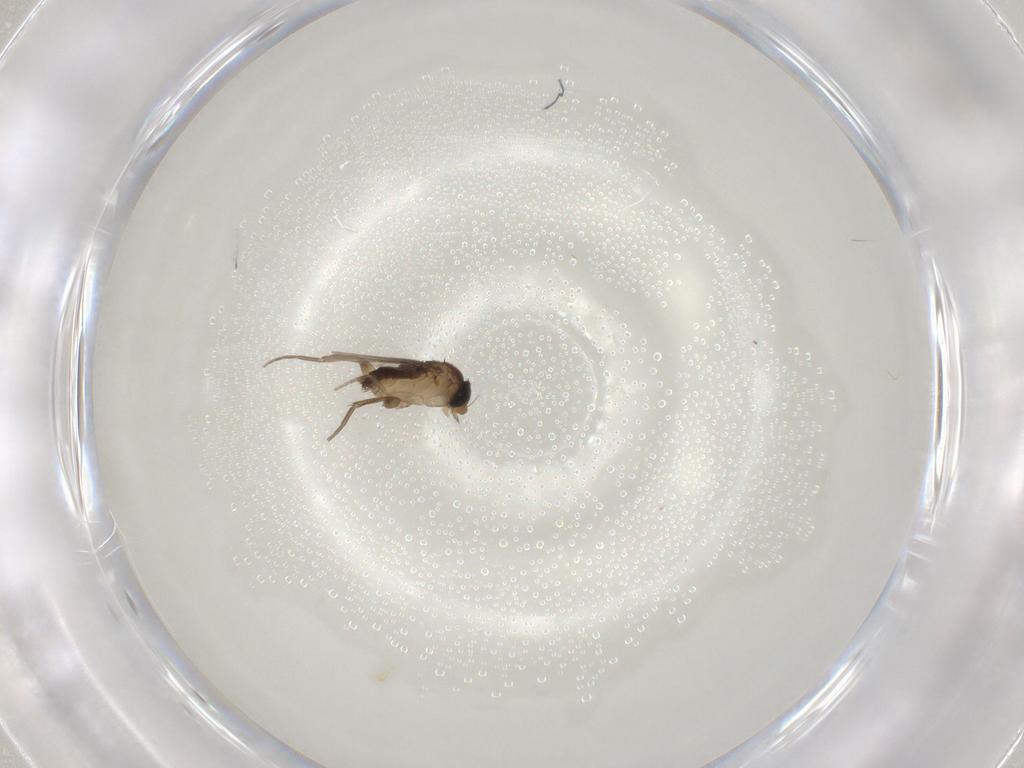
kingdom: Animalia
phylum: Arthropoda
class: Insecta
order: Diptera
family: Phoridae
